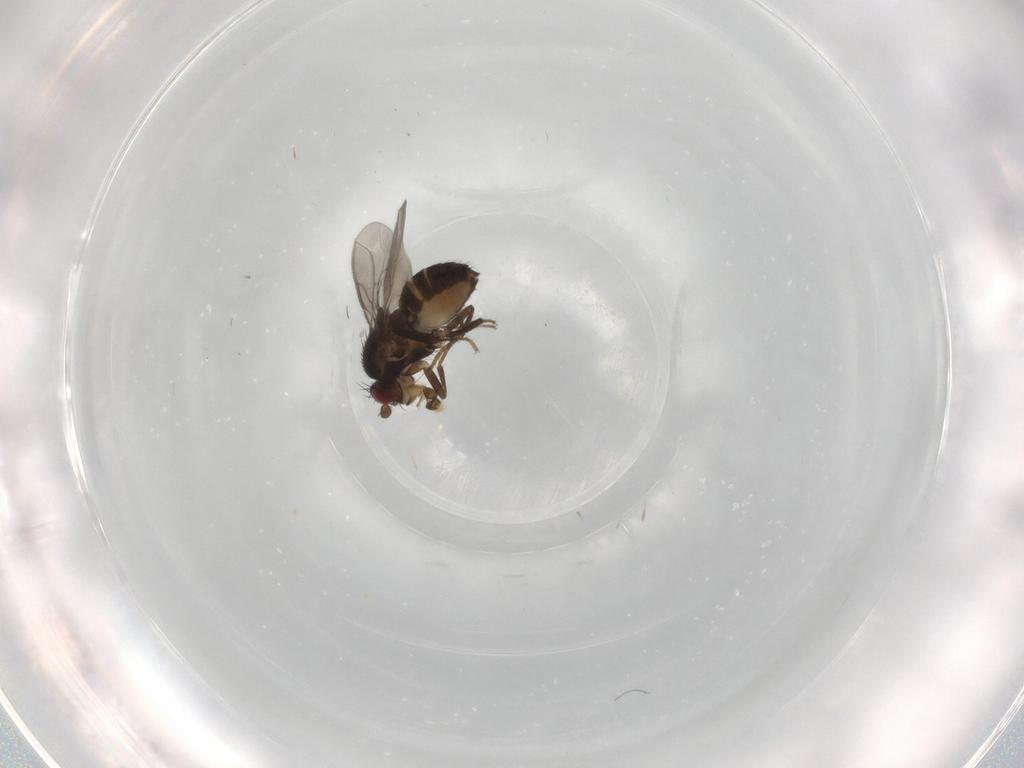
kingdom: Animalia
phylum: Arthropoda
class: Insecta
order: Diptera
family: Sphaeroceridae
